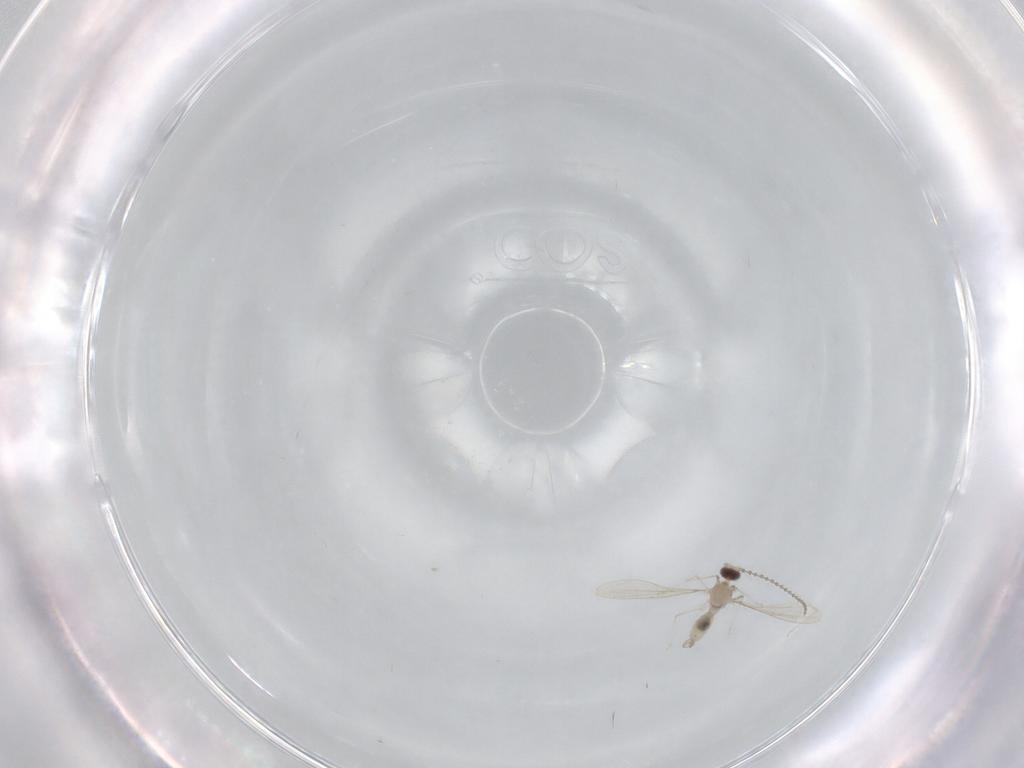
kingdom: Animalia
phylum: Arthropoda
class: Insecta
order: Diptera
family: Psychodidae
